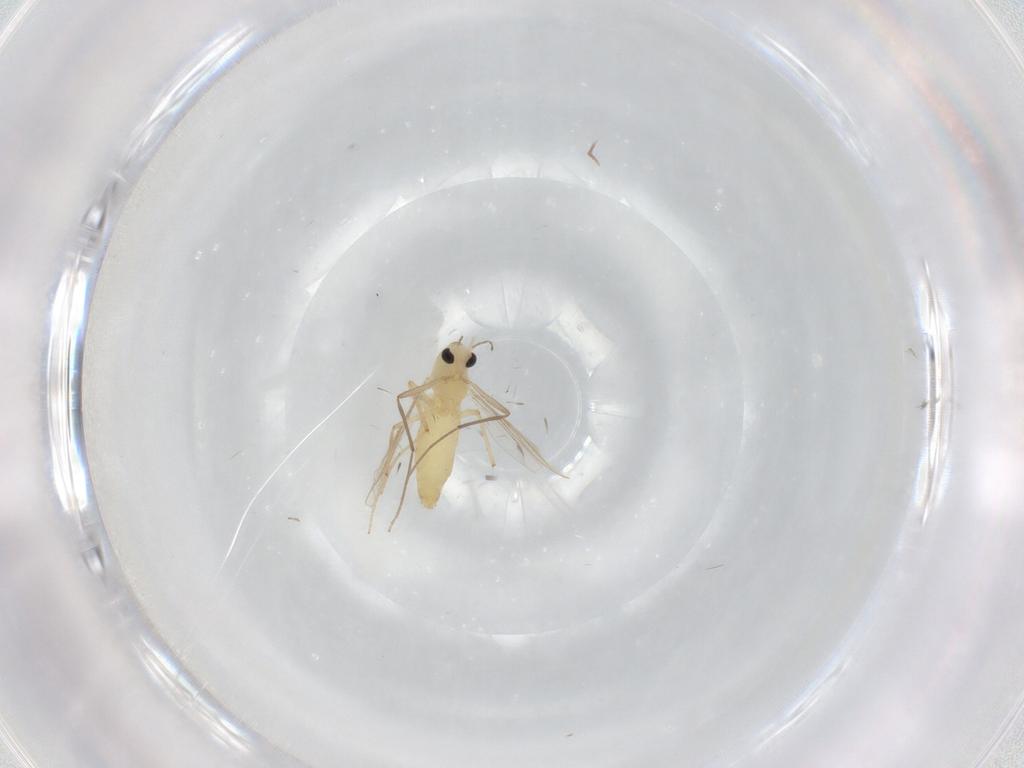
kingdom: Animalia
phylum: Arthropoda
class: Insecta
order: Diptera
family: Chironomidae
